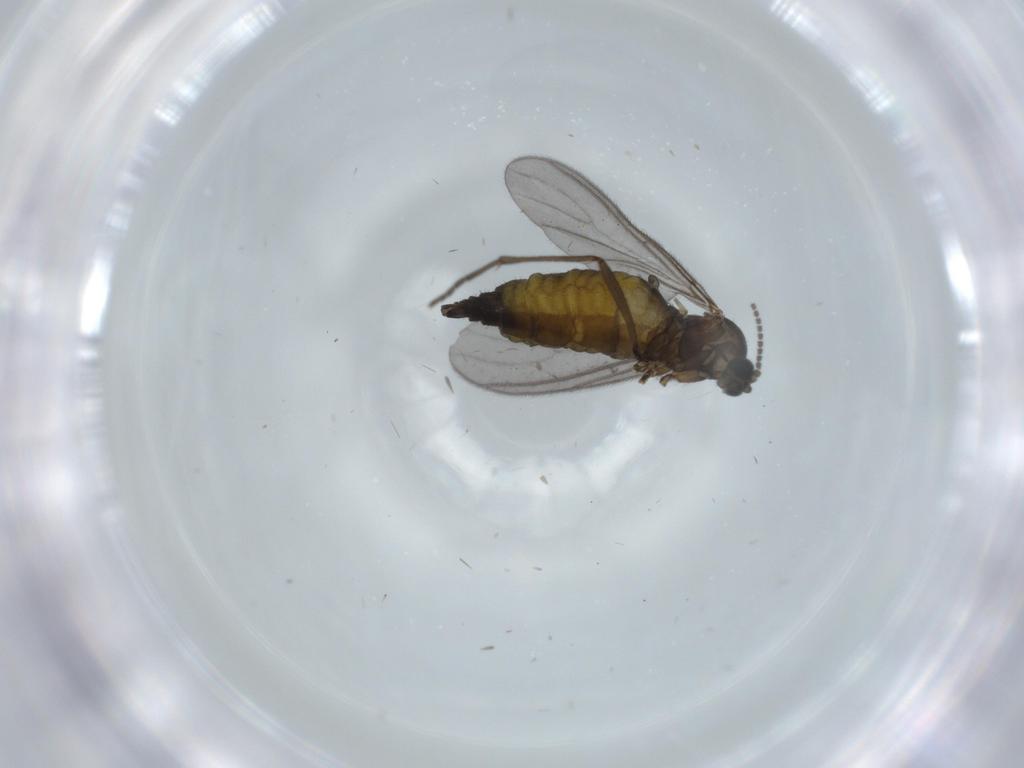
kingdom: Animalia
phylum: Arthropoda
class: Insecta
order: Diptera
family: Sciaridae
